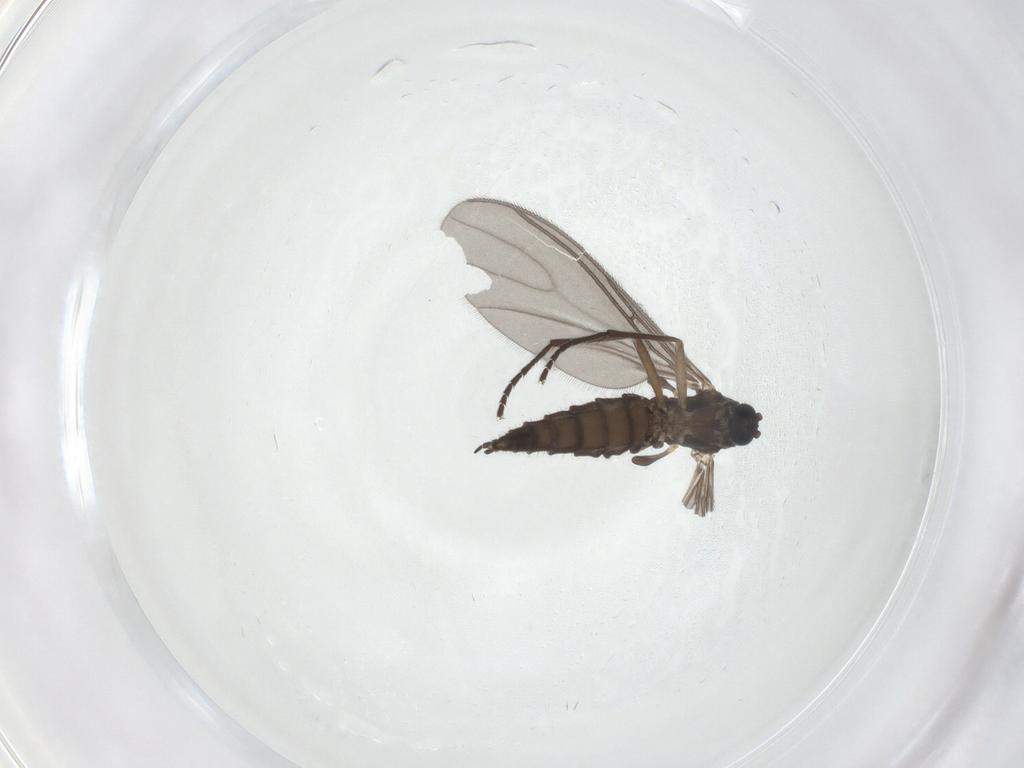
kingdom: Animalia
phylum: Arthropoda
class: Insecta
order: Diptera
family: Sciaridae
